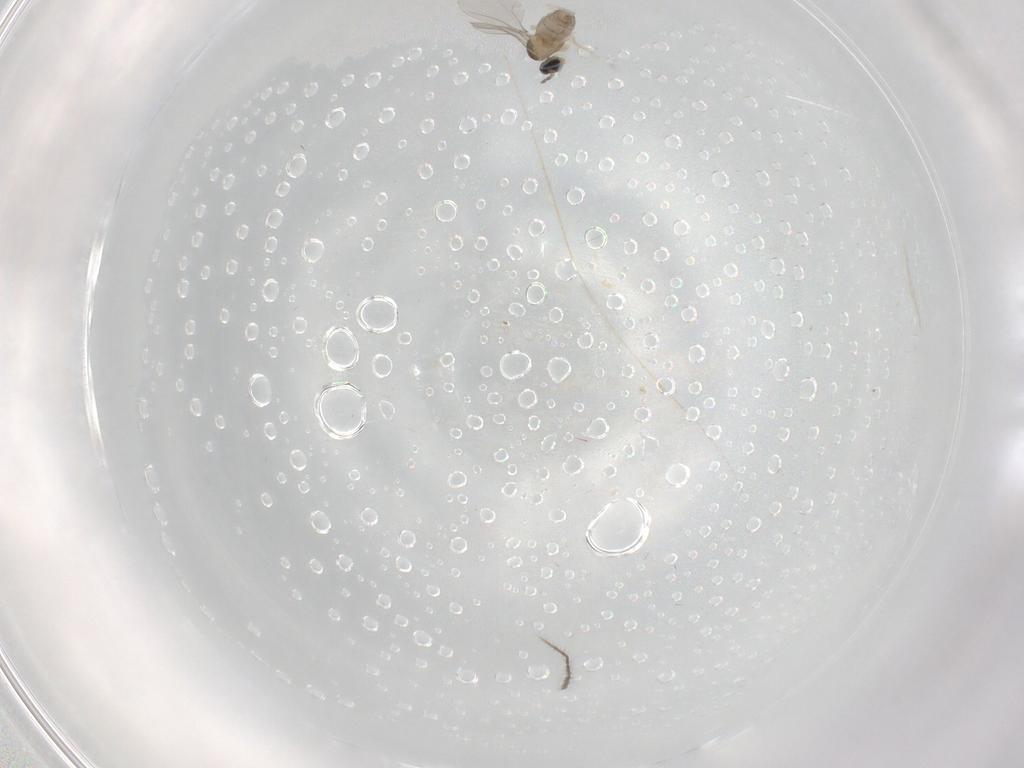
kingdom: Animalia
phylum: Arthropoda
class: Insecta
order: Diptera
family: Cecidomyiidae
